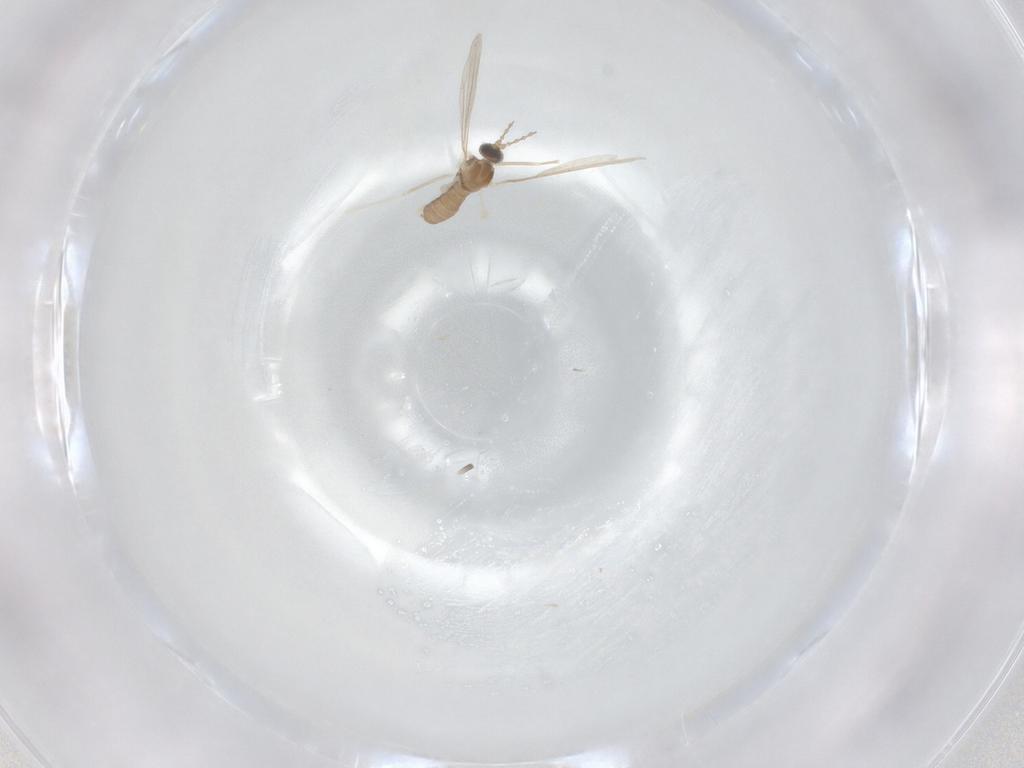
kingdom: Animalia
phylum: Arthropoda
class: Insecta
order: Diptera
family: Cecidomyiidae
